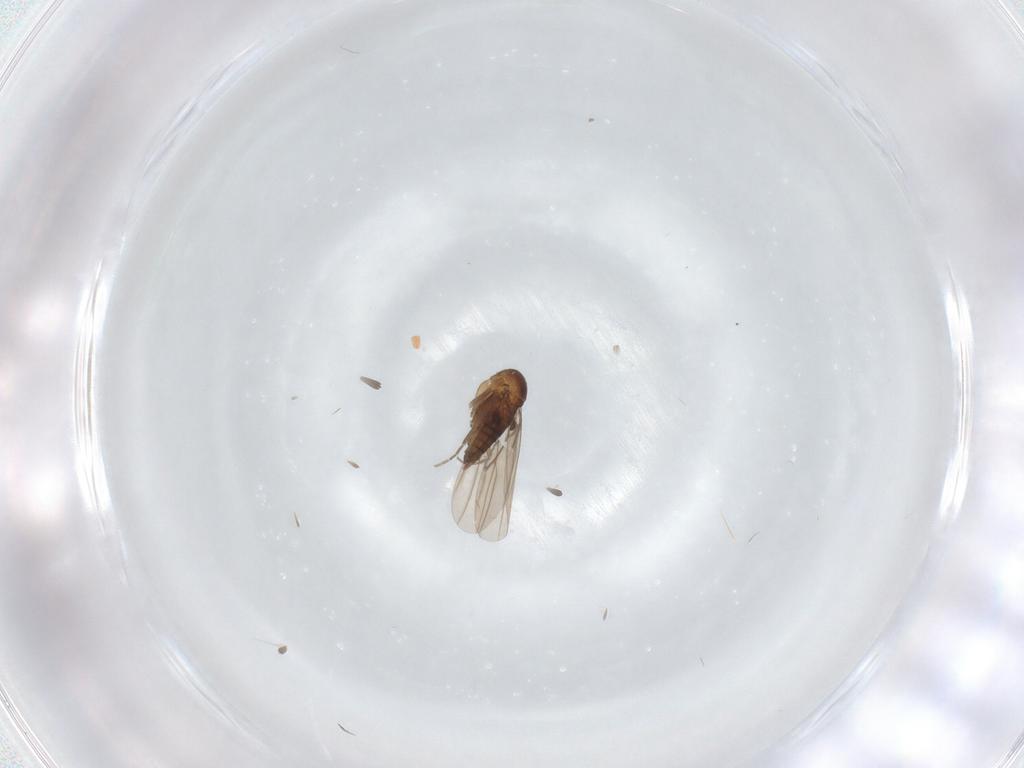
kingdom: Animalia
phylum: Arthropoda
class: Insecta
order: Diptera
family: Phoridae
